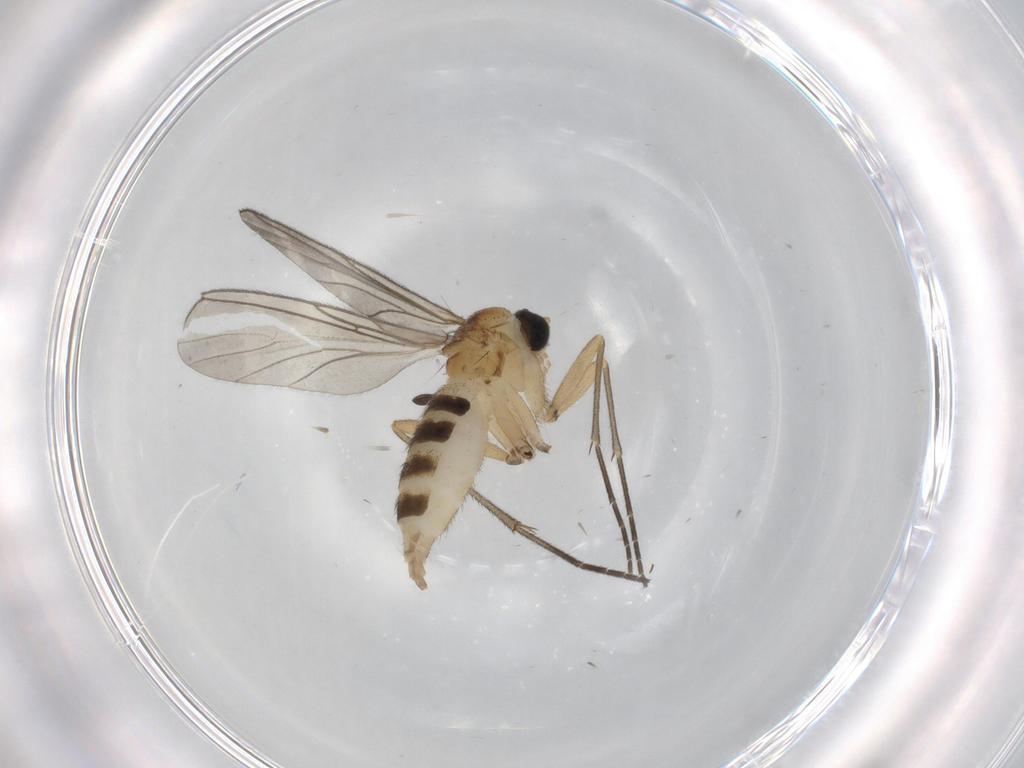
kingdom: Animalia
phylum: Arthropoda
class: Insecta
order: Diptera
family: Sciaridae
